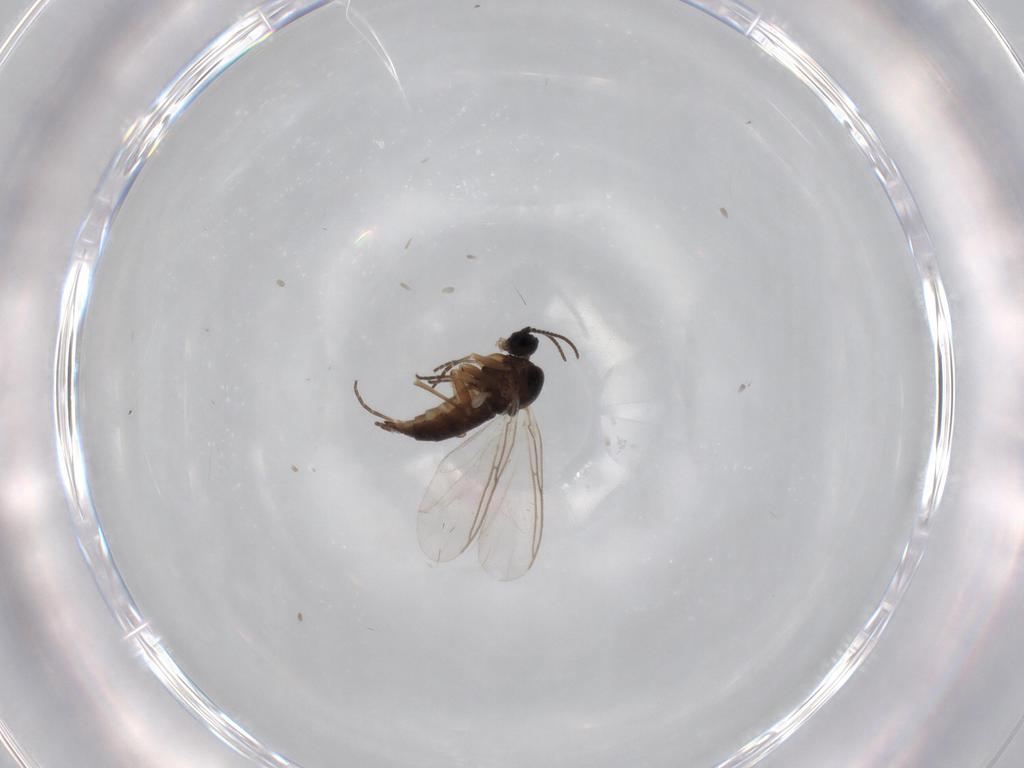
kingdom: Animalia
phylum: Arthropoda
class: Insecta
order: Diptera
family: Sciaridae
